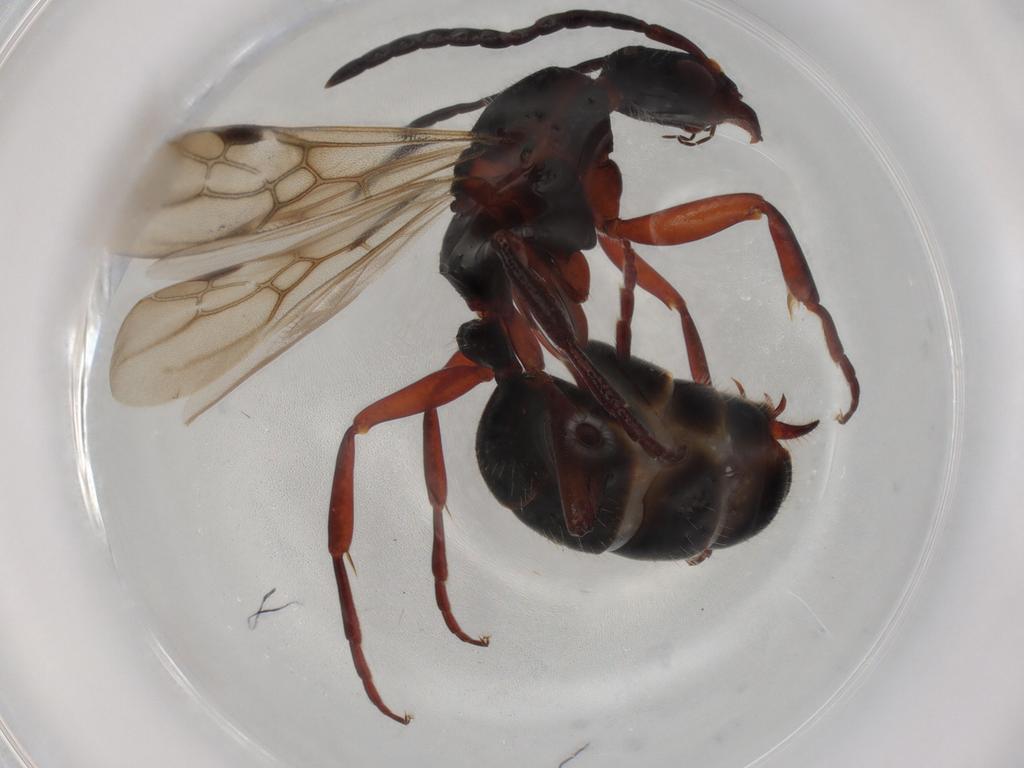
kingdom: Animalia
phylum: Arthropoda
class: Insecta
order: Hymenoptera
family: Formicidae
